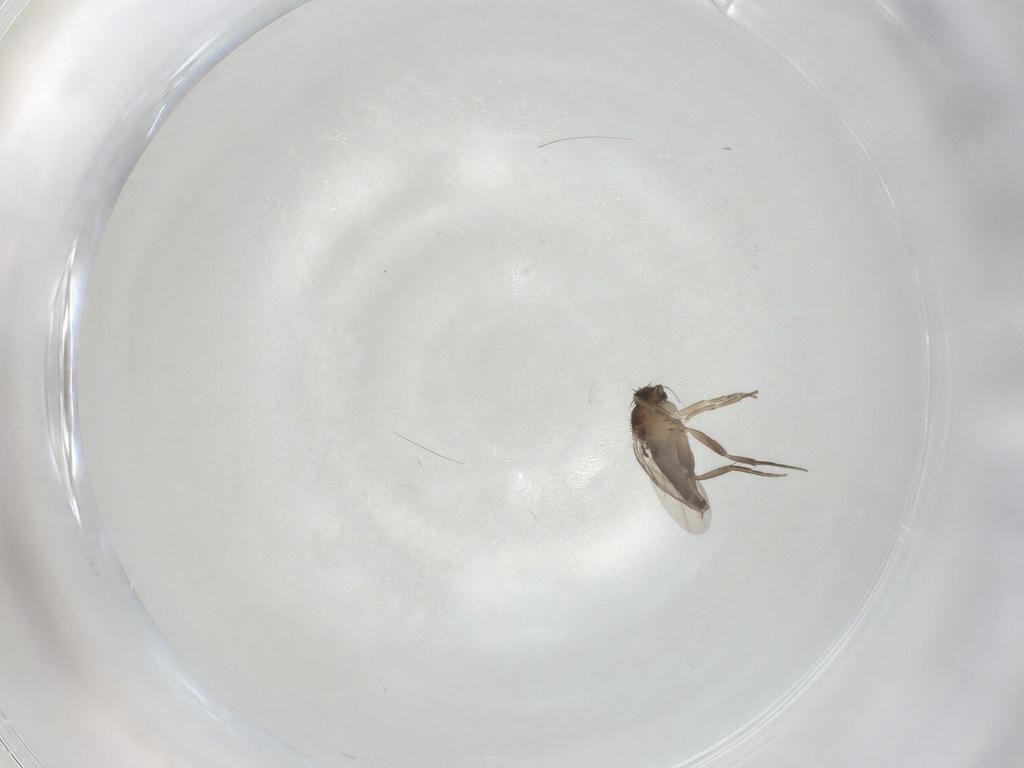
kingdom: Animalia
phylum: Arthropoda
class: Insecta
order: Diptera
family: Phoridae
